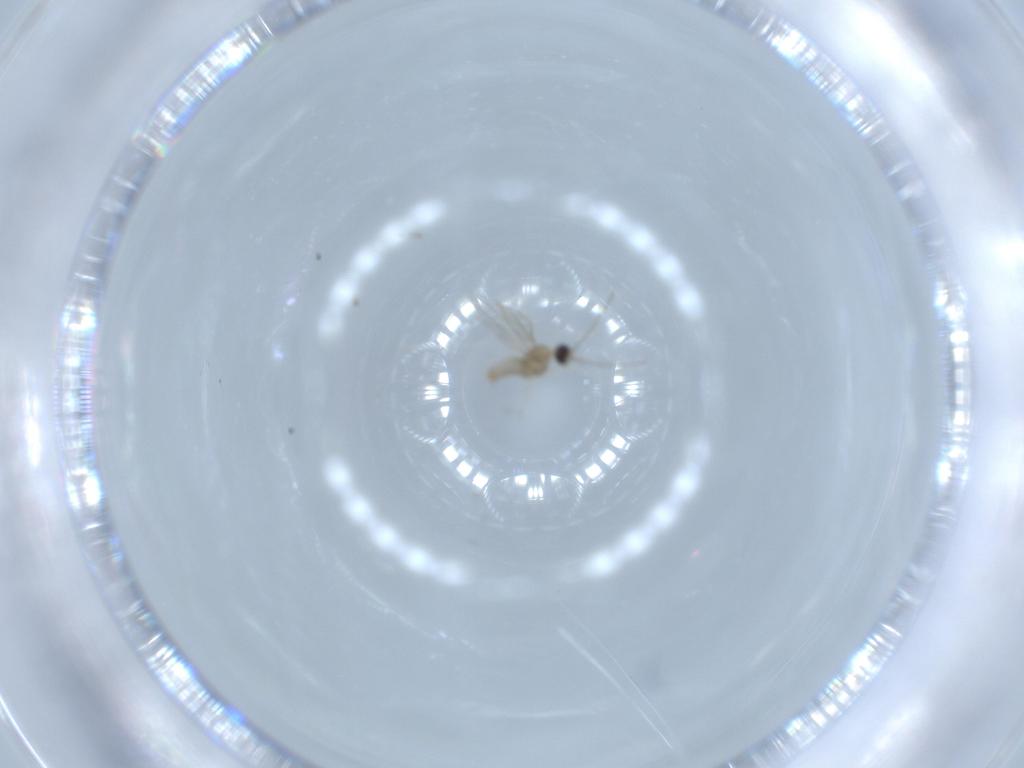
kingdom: Animalia
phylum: Arthropoda
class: Insecta
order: Diptera
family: Cecidomyiidae
